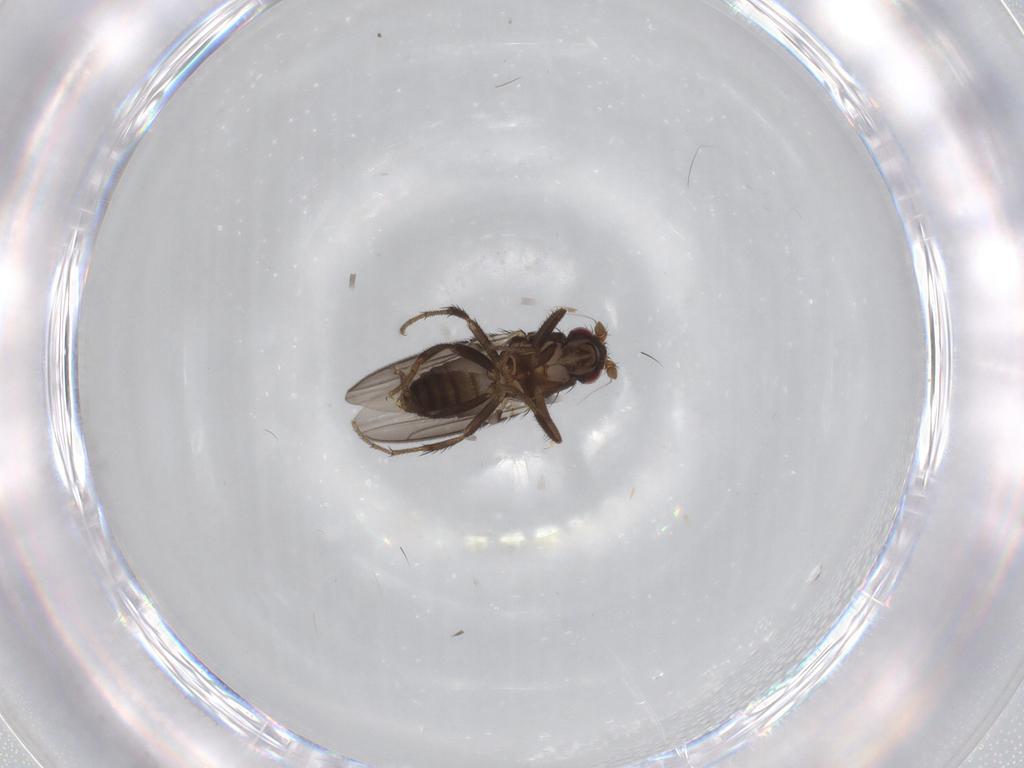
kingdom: Animalia
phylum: Arthropoda
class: Insecta
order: Diptera
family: Sphaeroceridae
